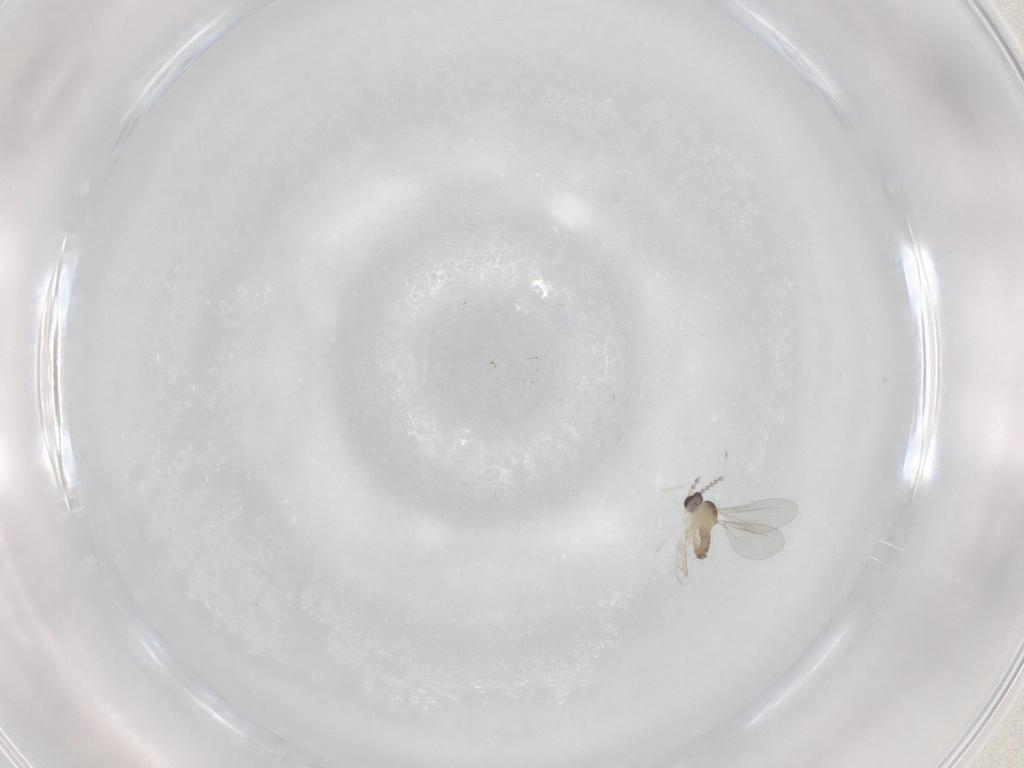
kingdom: Animalia
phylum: Arthropoda
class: Insecta
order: Diptera
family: Cecidomyiidae
